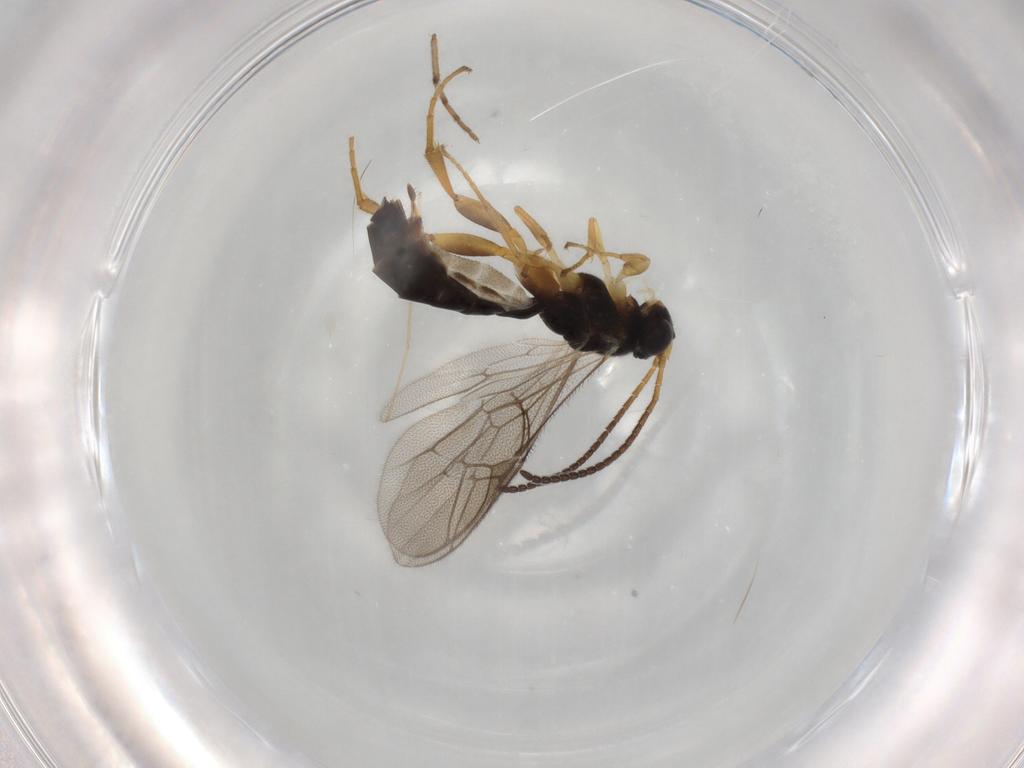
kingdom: Animalia
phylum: Arthropoda
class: Insecta
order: Hymenoptera
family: Ichneumonidae
